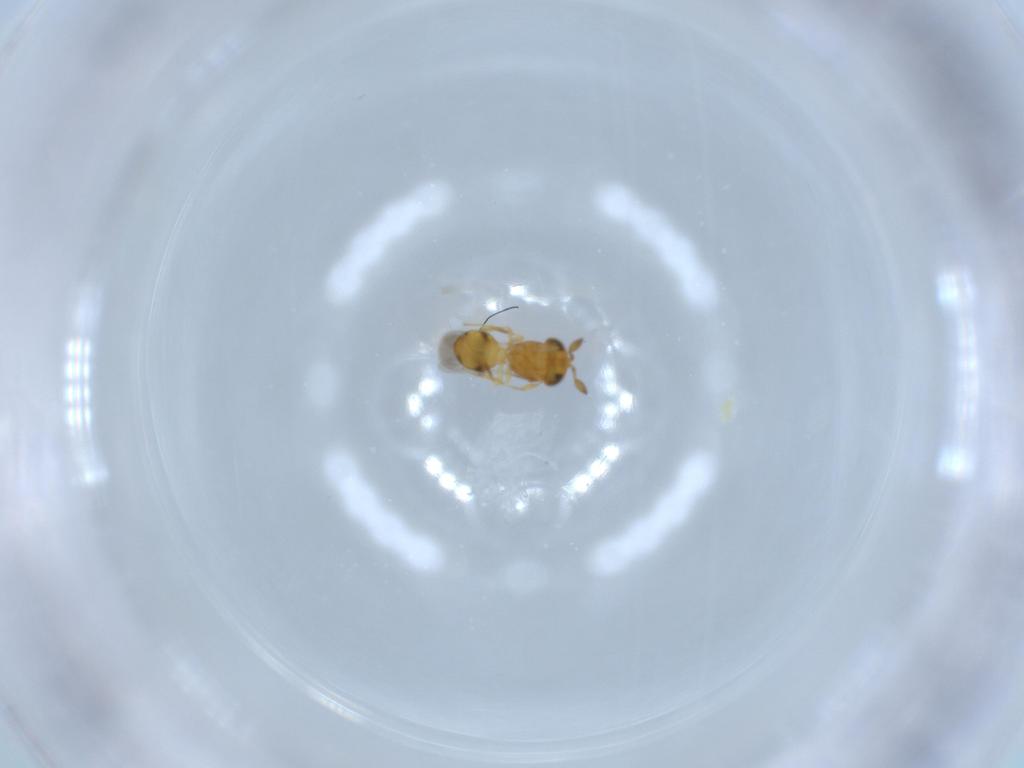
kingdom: Animalia
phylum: Arthropoda
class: Insecta
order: Hymenoptera
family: Scelionidae
